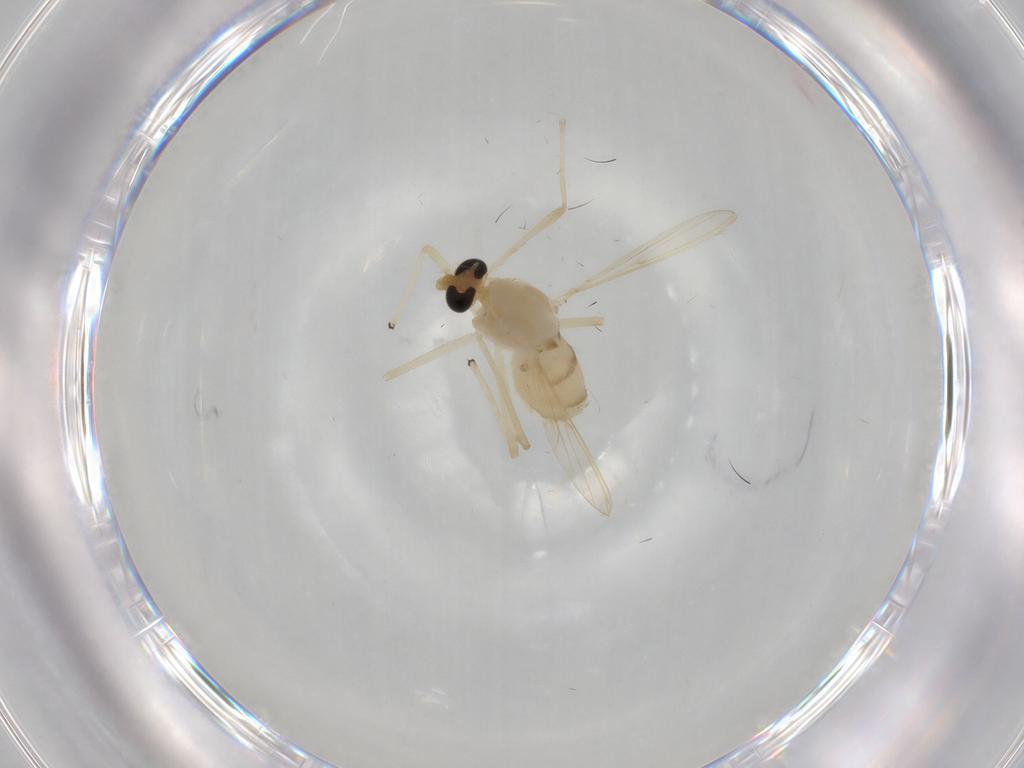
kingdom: Animalia
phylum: Arthropoda
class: Insecta
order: Diptera
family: Chironomidae
